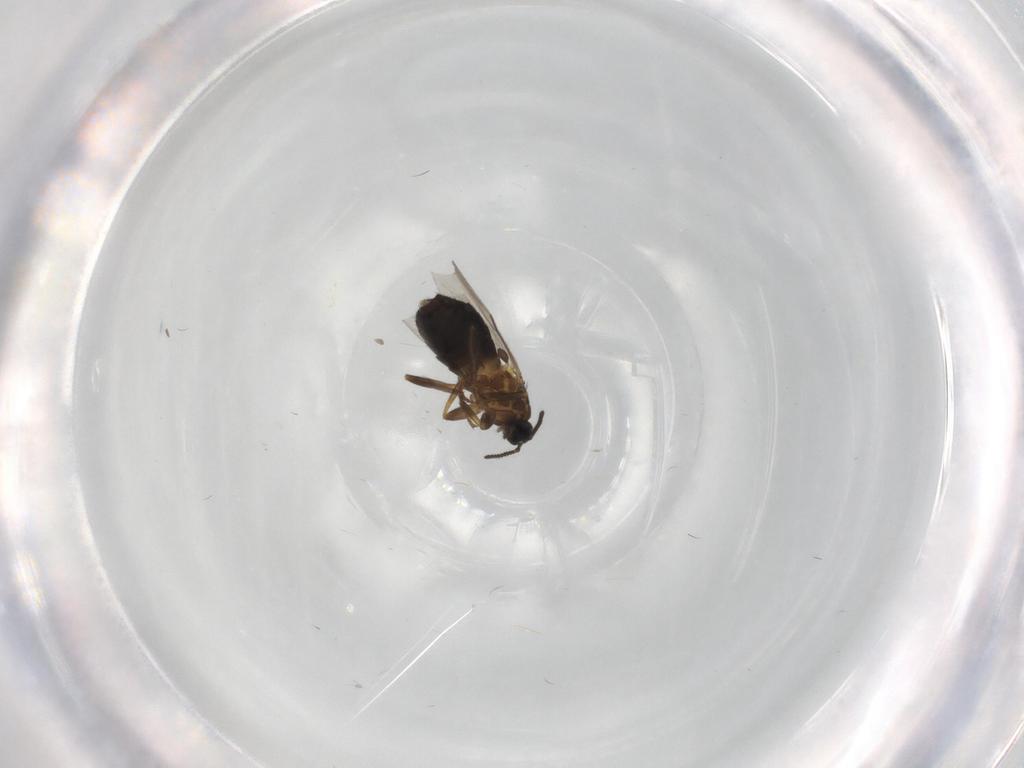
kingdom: Animalia
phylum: Arthropoda
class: Insecta
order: Diptera
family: Scatopsidae
